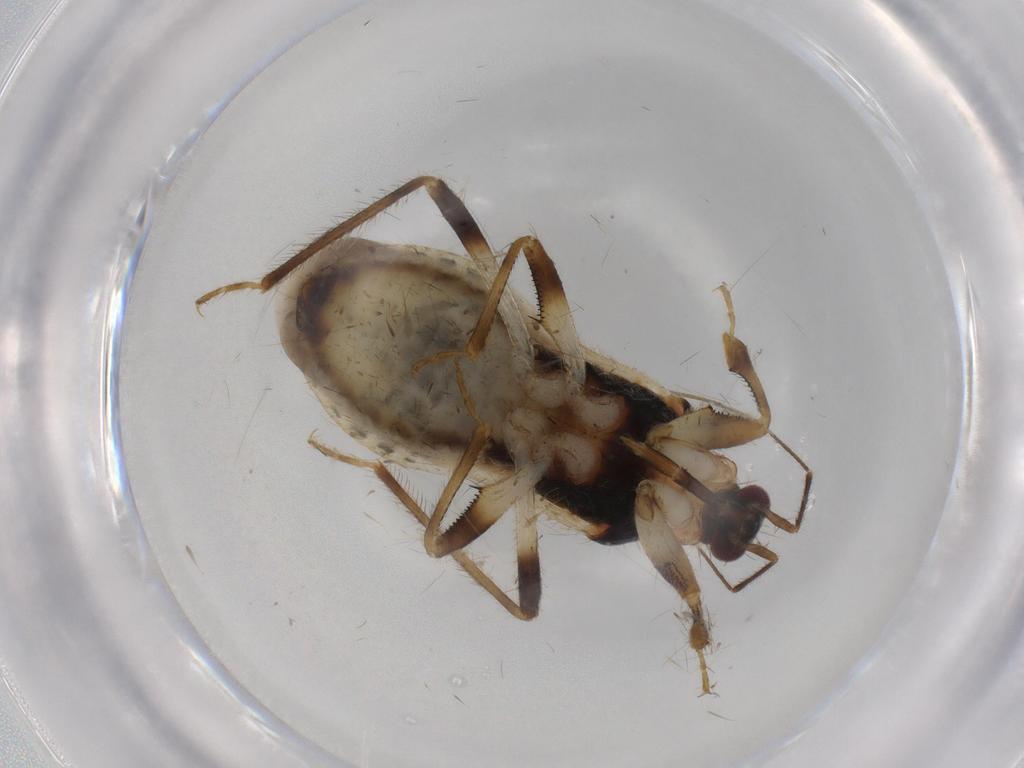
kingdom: Animalia
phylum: Arthropoda
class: Insecta
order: Hemiptera
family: Nabidae
